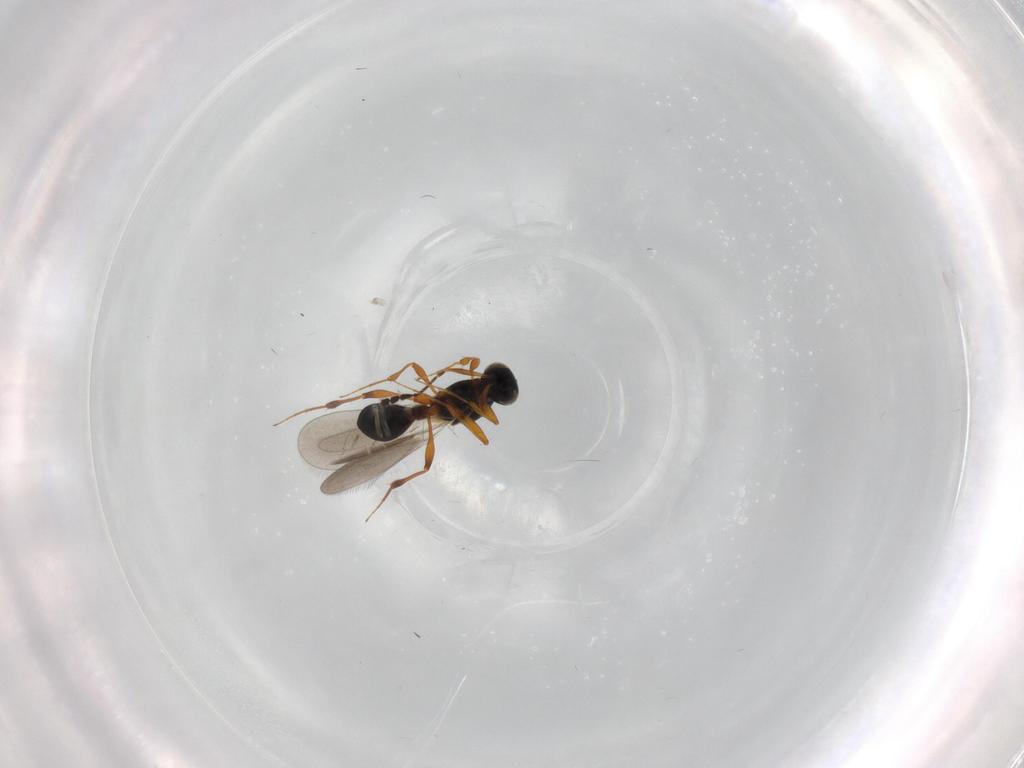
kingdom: Animalia
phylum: Arthropoda
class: Insecta
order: Hymenoptera
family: Platygastridae
